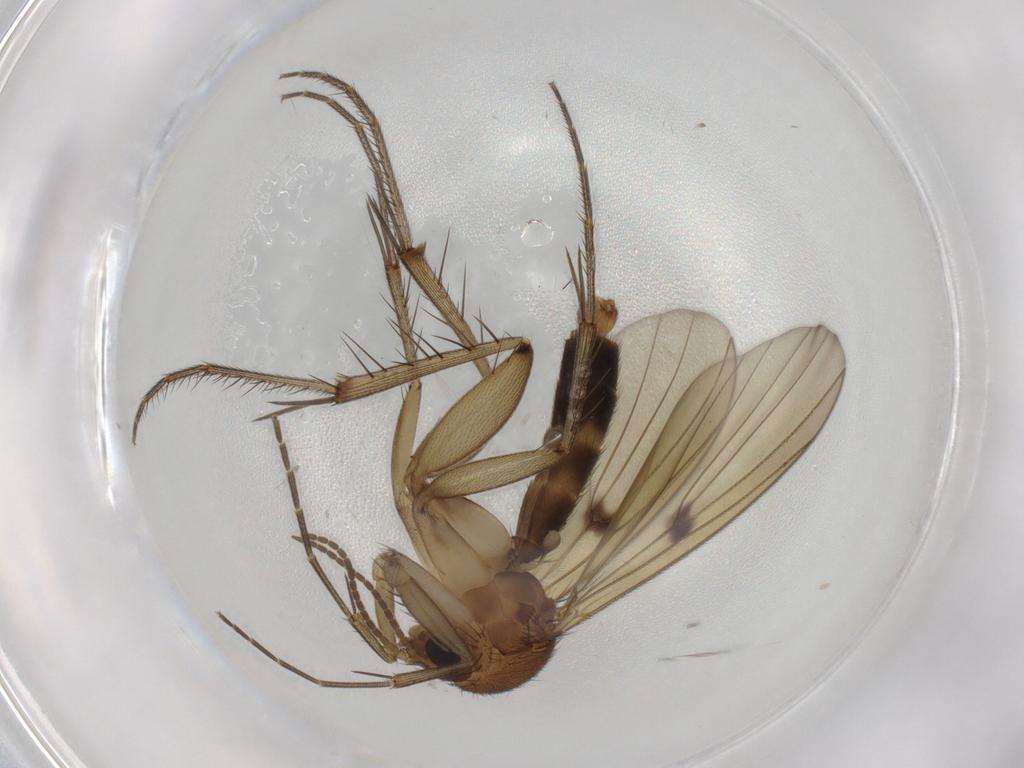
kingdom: Animalia
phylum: Arthropoda
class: Insecta
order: Diptera
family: Mycetophilidae
